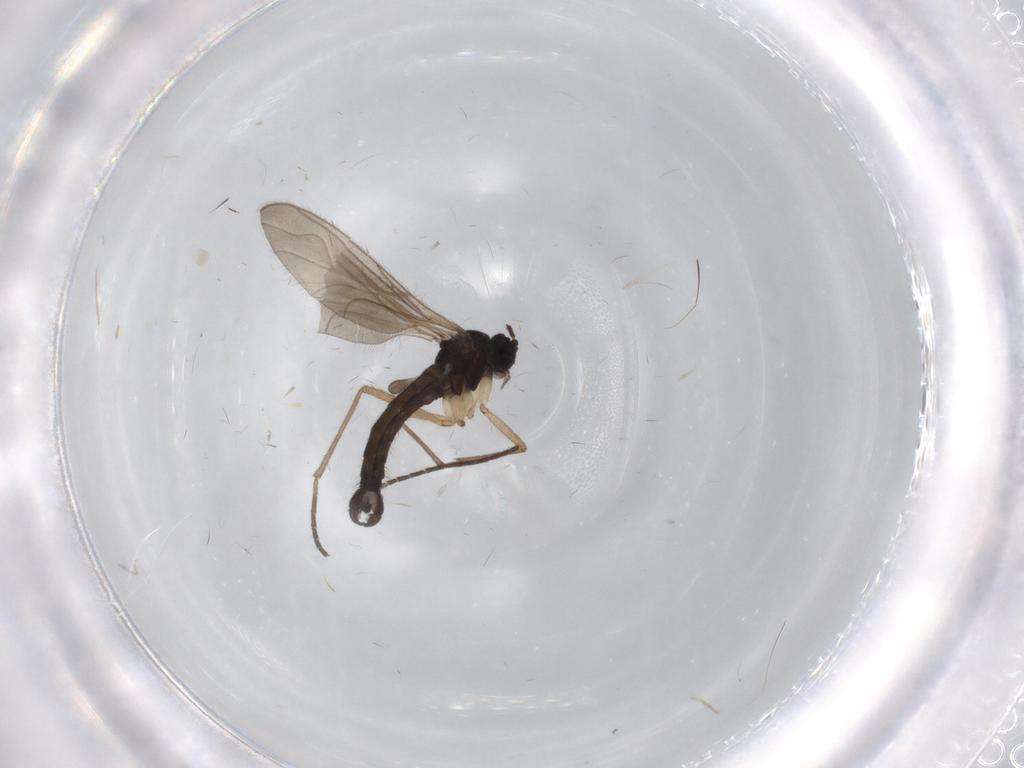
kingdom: Animalia
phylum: Arthropoda
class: Insecta
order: Diptera
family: Sciaridae
